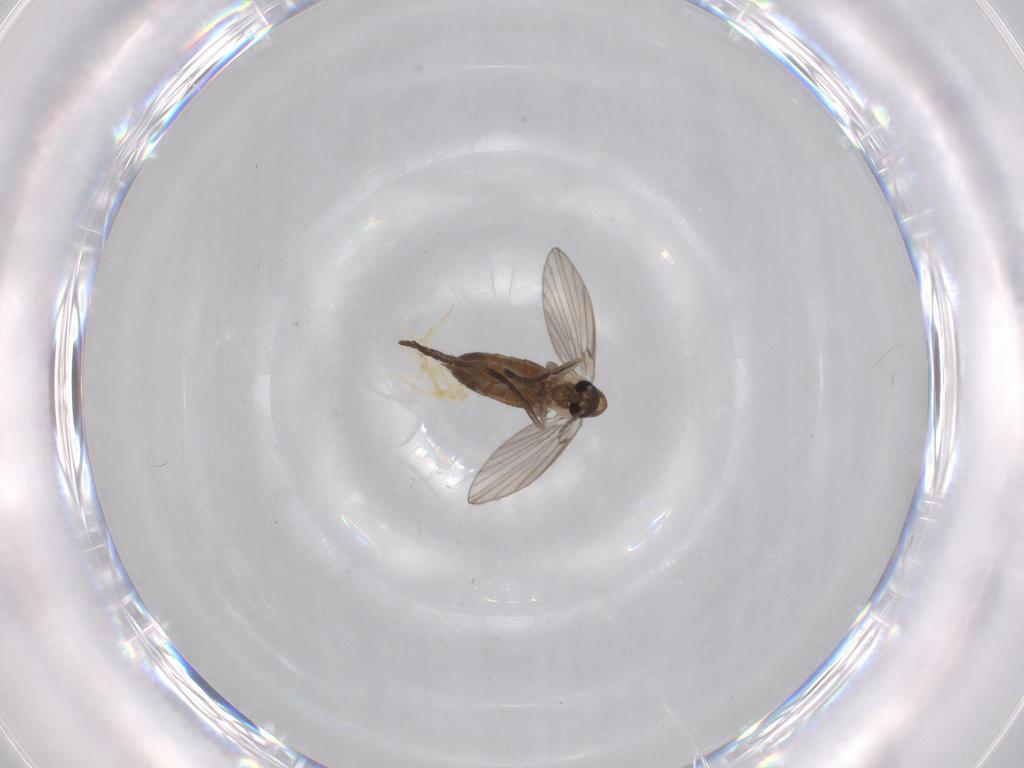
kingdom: Animalia
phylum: Arthropoda
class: Insecta
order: Diptera
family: Psychodidae
